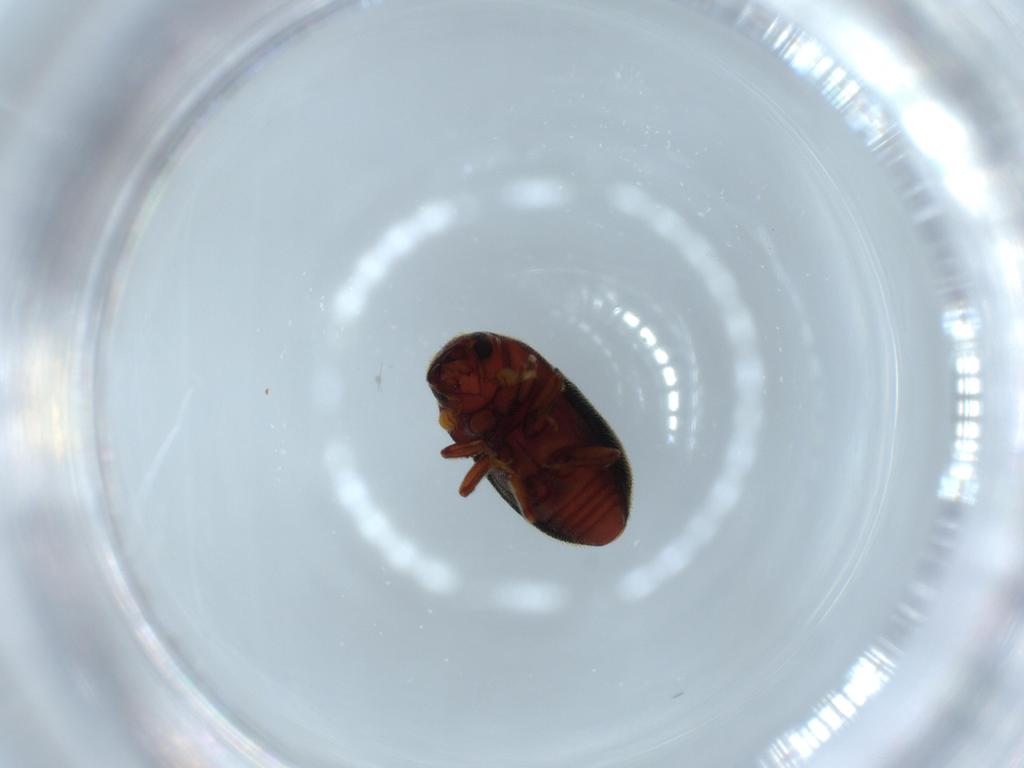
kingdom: Animalia
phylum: Arthropoda
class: Insecta
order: Coleoptera
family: Curculionidae
